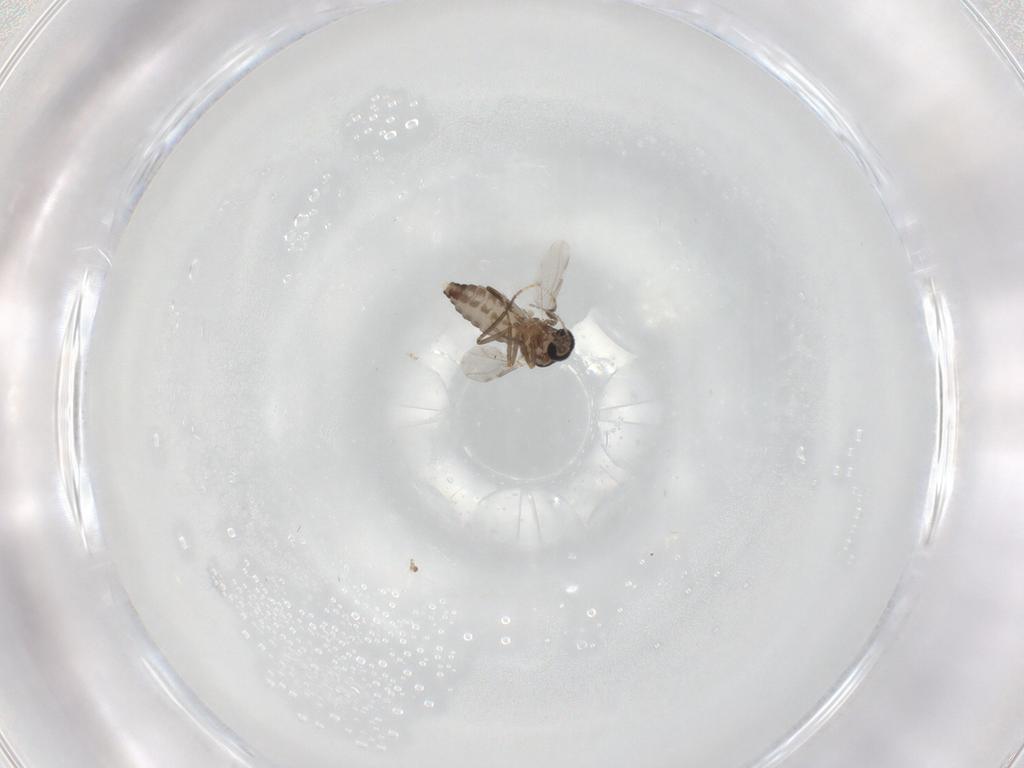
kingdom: Animalia
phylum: Arthropoda
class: Insecta
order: Diptera
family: Ceratopogonidae
